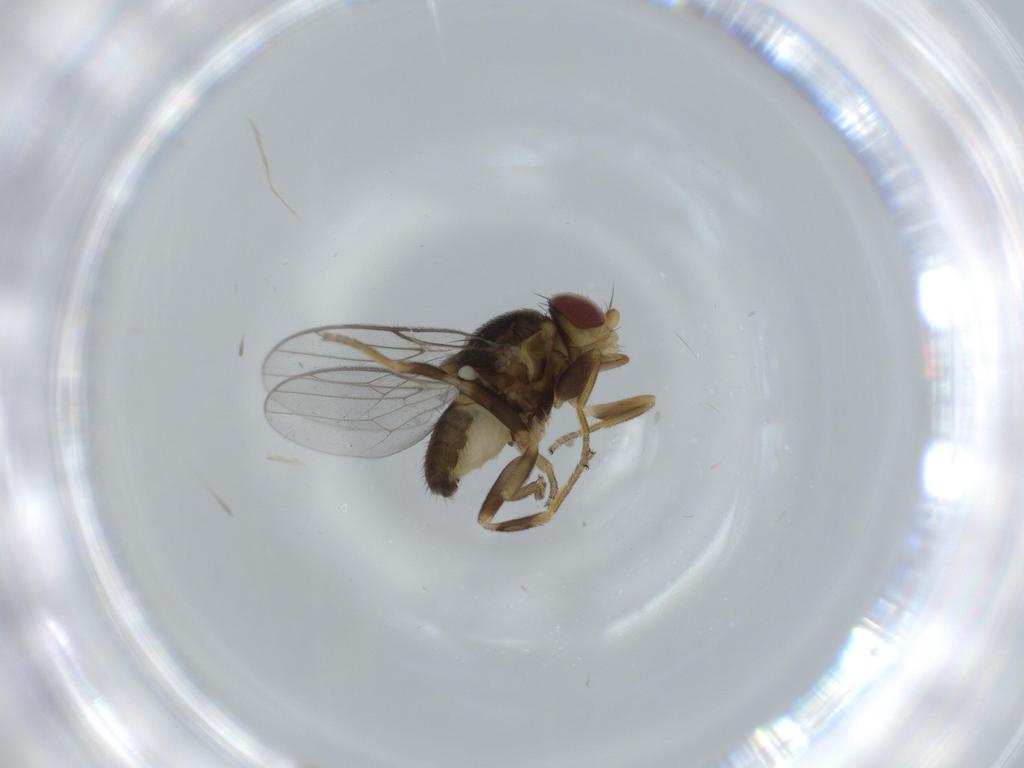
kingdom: Animalia
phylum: Arthropoda
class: Insecta
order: Diptera
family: Chloropidae
